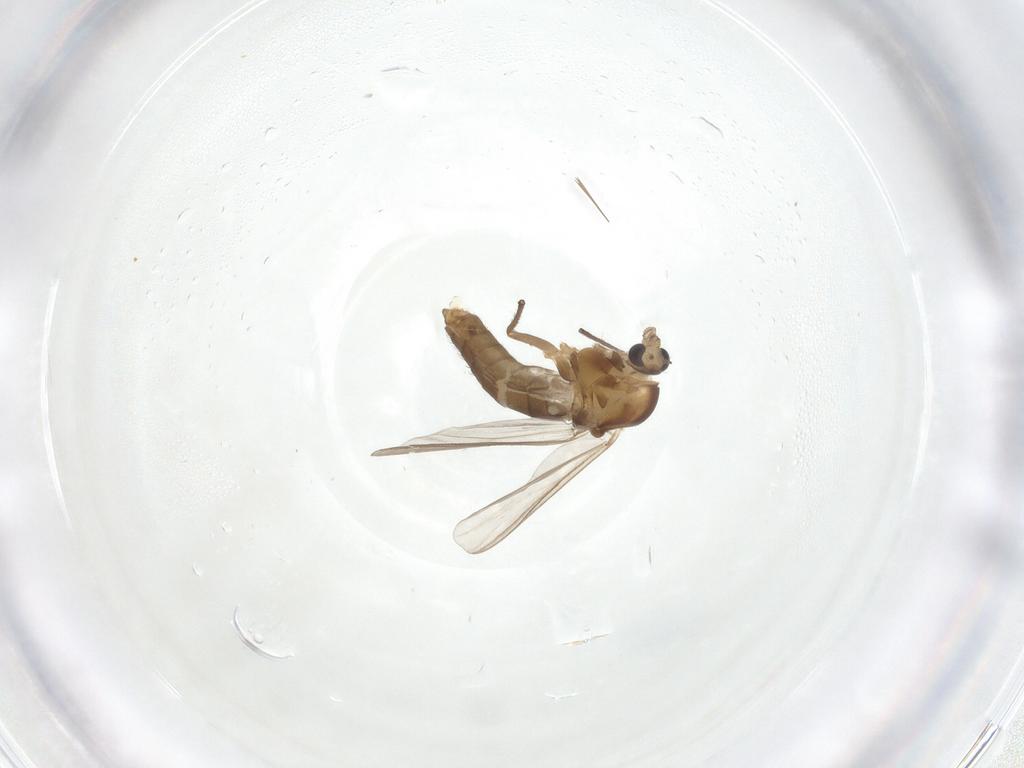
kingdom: Animalia
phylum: Arthropoda
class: Insecta
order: Diptera
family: Chironomidae
